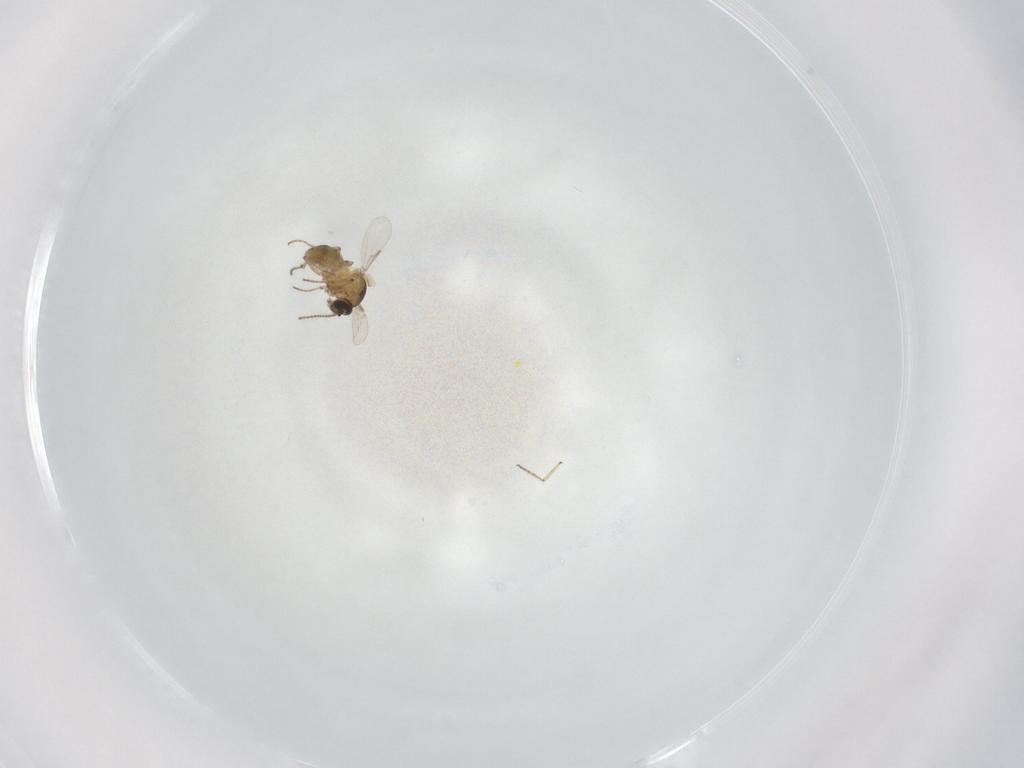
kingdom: Animalia
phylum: Arthropoda
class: Insecta
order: Diptera
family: Ceratopogonidae
